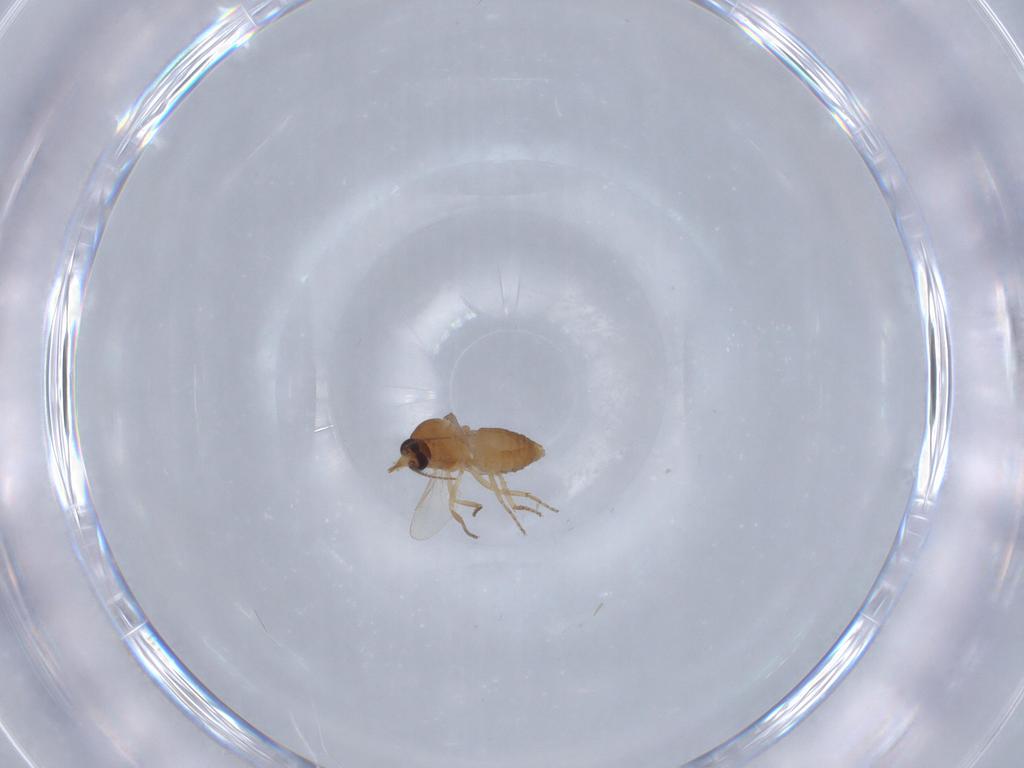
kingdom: Animalia
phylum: Arthropoda
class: Insecta
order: Diptera
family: Ceratopogonidae
